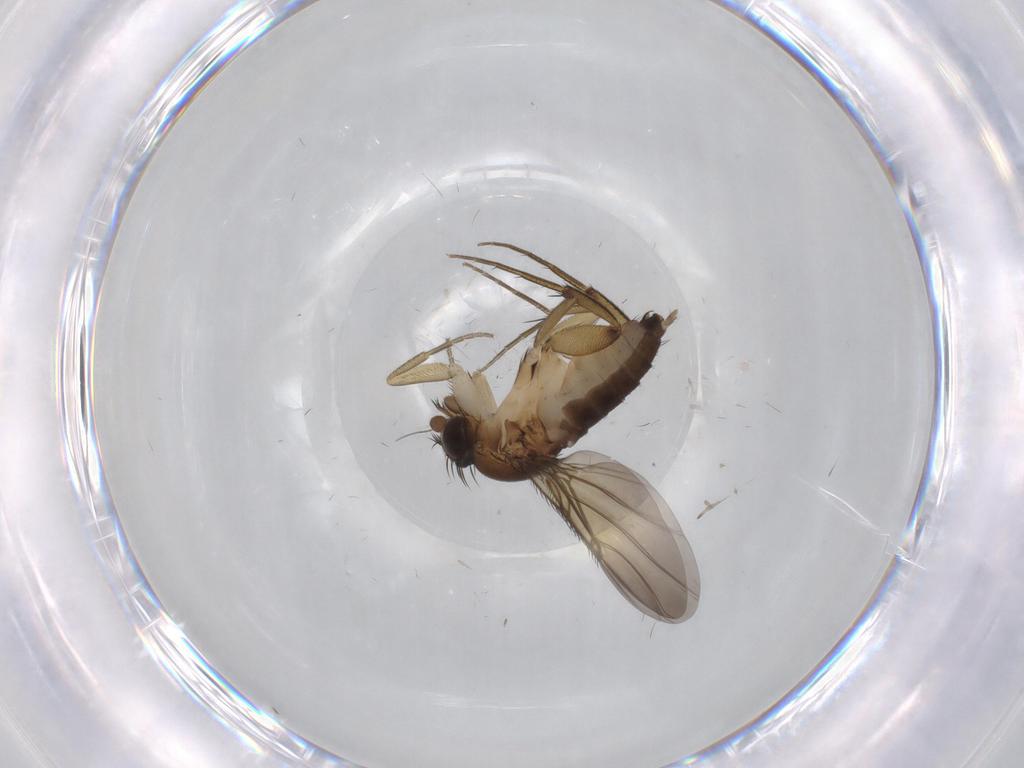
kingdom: Animalia
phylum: Arthropoda
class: Insecta
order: Diptera
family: Phoridae
